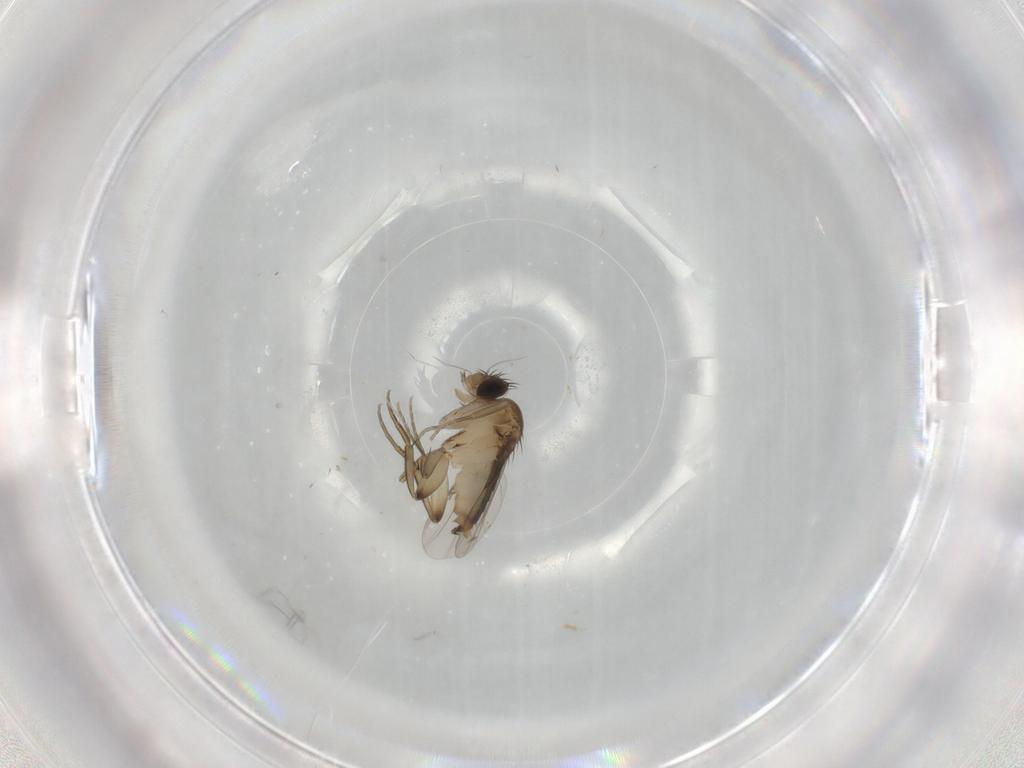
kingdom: Animalia
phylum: Arthropoda
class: Insecta
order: Diptera
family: Phoridae
